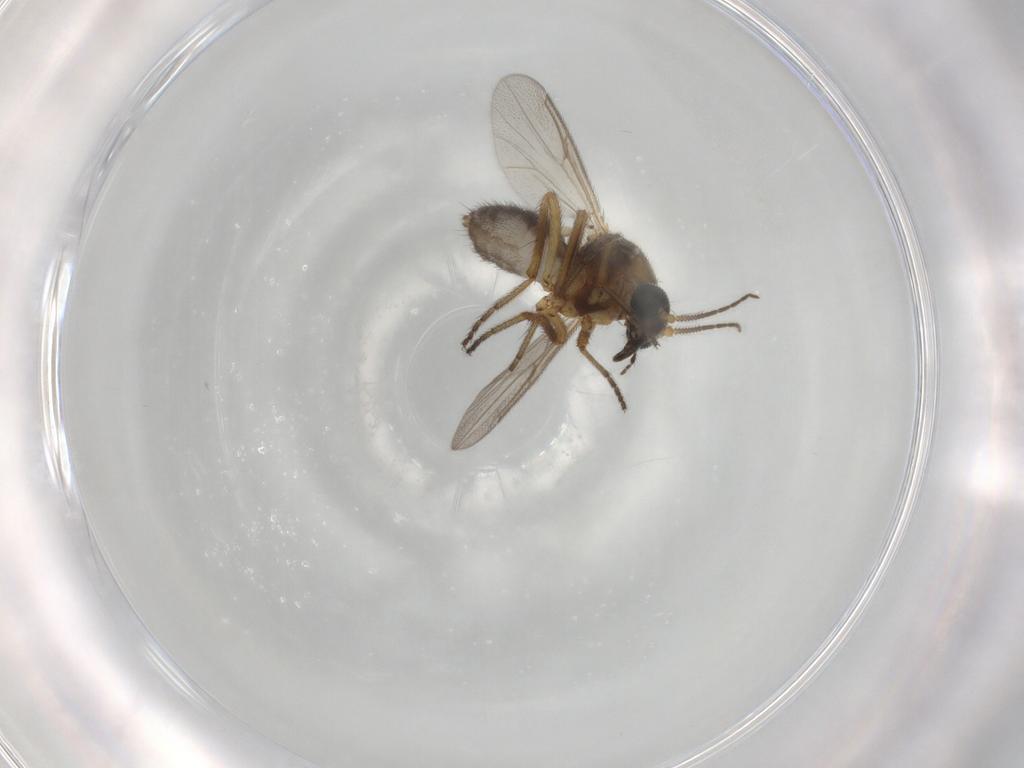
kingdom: Animalia
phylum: Arthropoda
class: Insecta
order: Diptera
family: Ceratopogonidae
